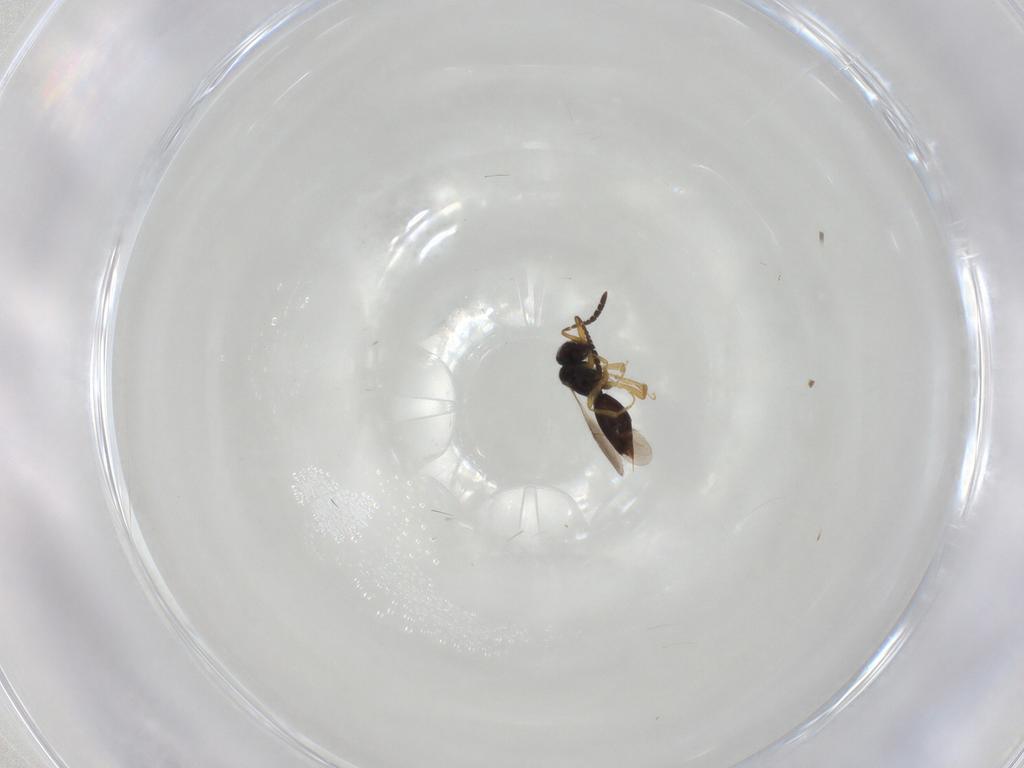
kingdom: Animalia
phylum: Arthropoda
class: Insecta
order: Hymenoptera
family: Ceraphronidae
